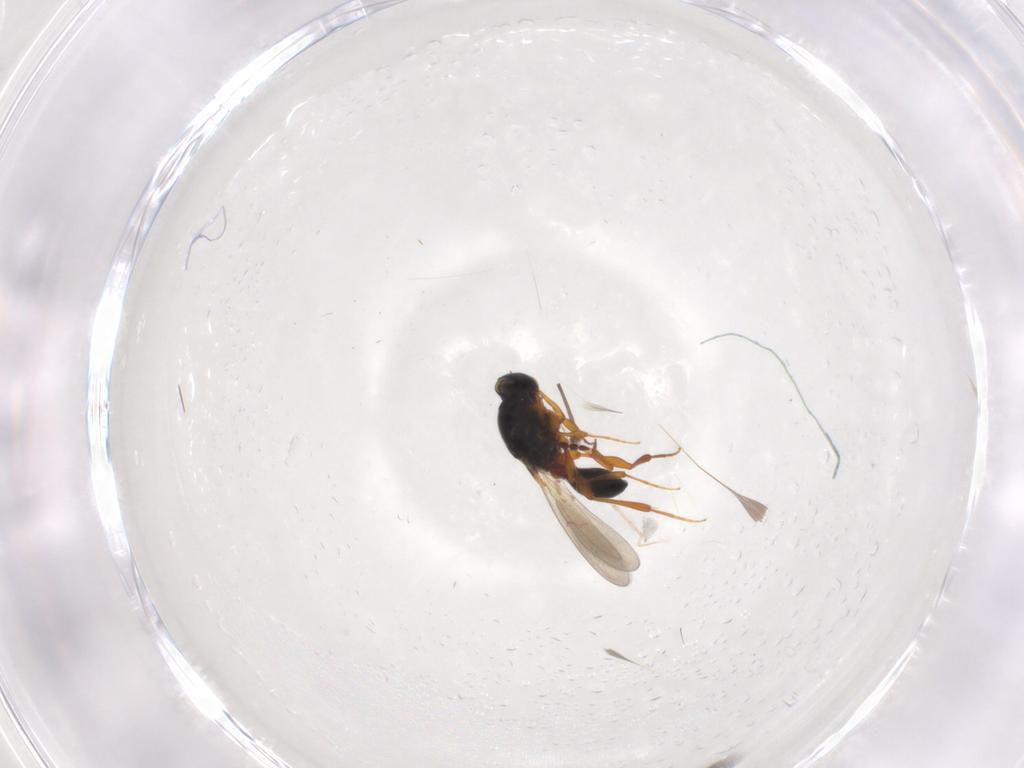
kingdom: Animalia
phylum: Arthropoda
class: Insecta
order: Hymenoptera
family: Platygastridae
